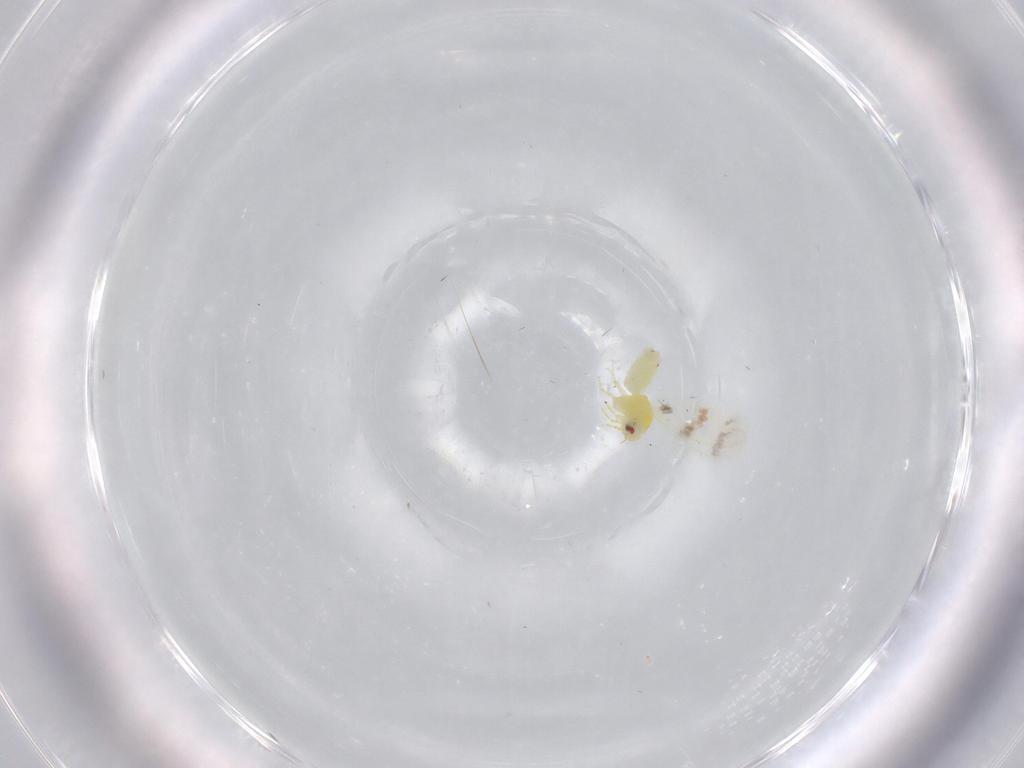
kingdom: Animalia
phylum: Arthropoda
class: Insecta
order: Hemiptera
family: Aleyrodidae
